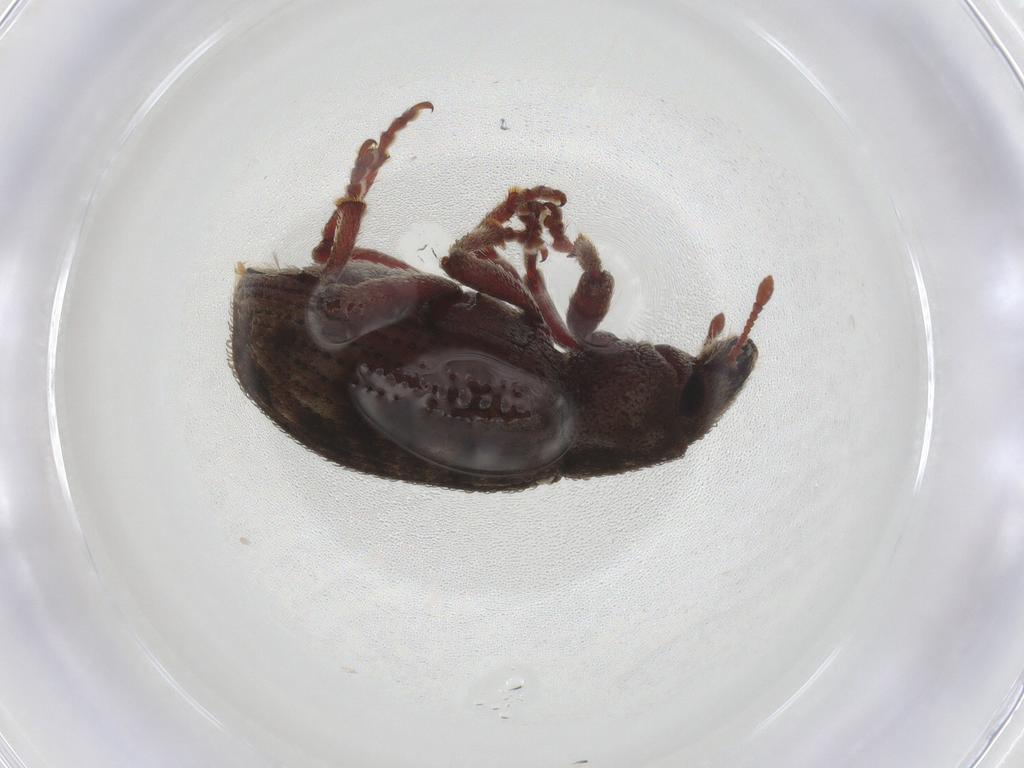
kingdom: Animalia
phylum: Arthropoda
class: Insecta
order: Coleoptera
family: Curculionidae
